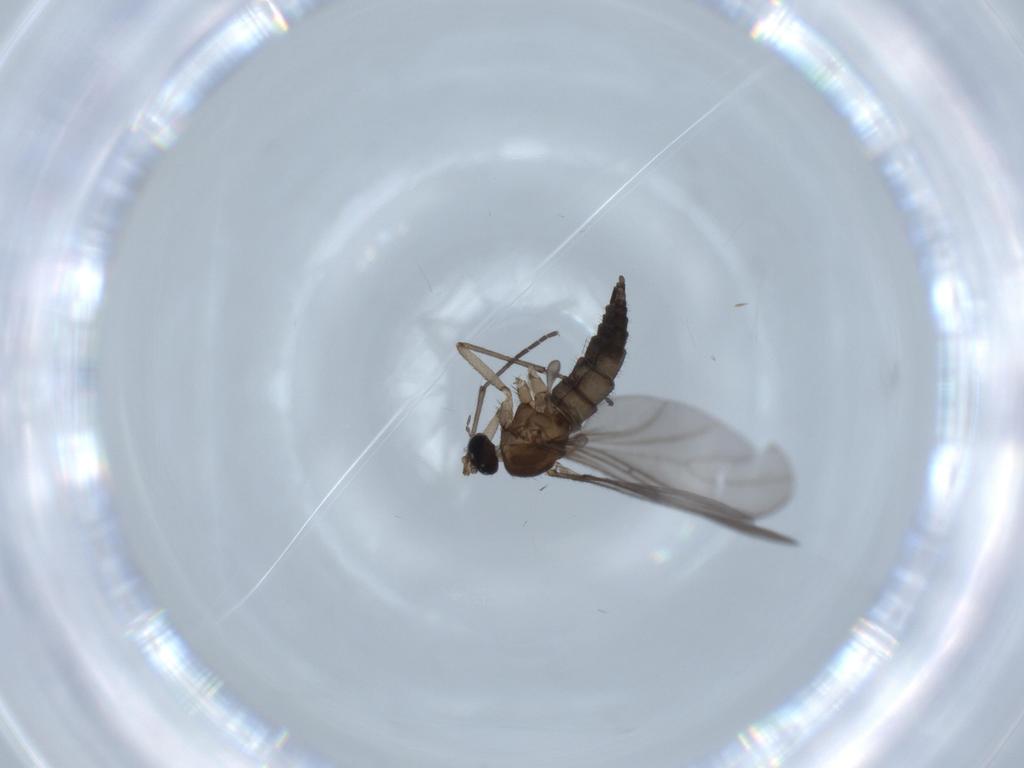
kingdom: Animalia
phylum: Arthropoda
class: Insecta
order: Diptera
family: Sciaridae
